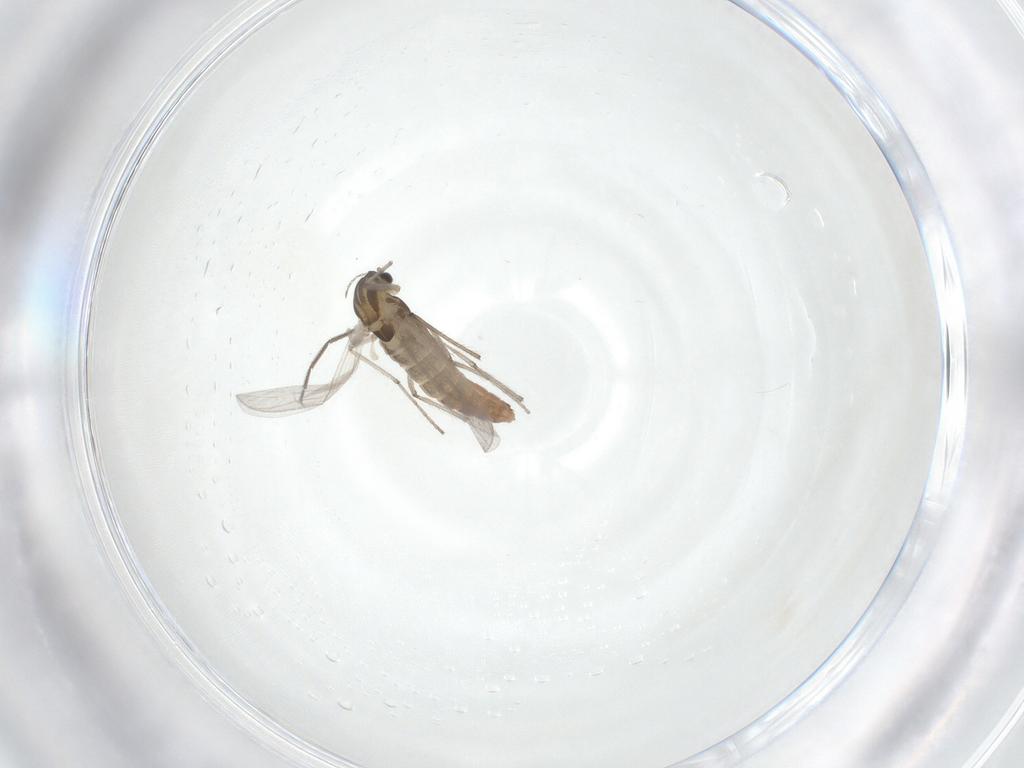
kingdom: Animalia
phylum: Arthropoda
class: Insecta
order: Diptera
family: Chironomidae
